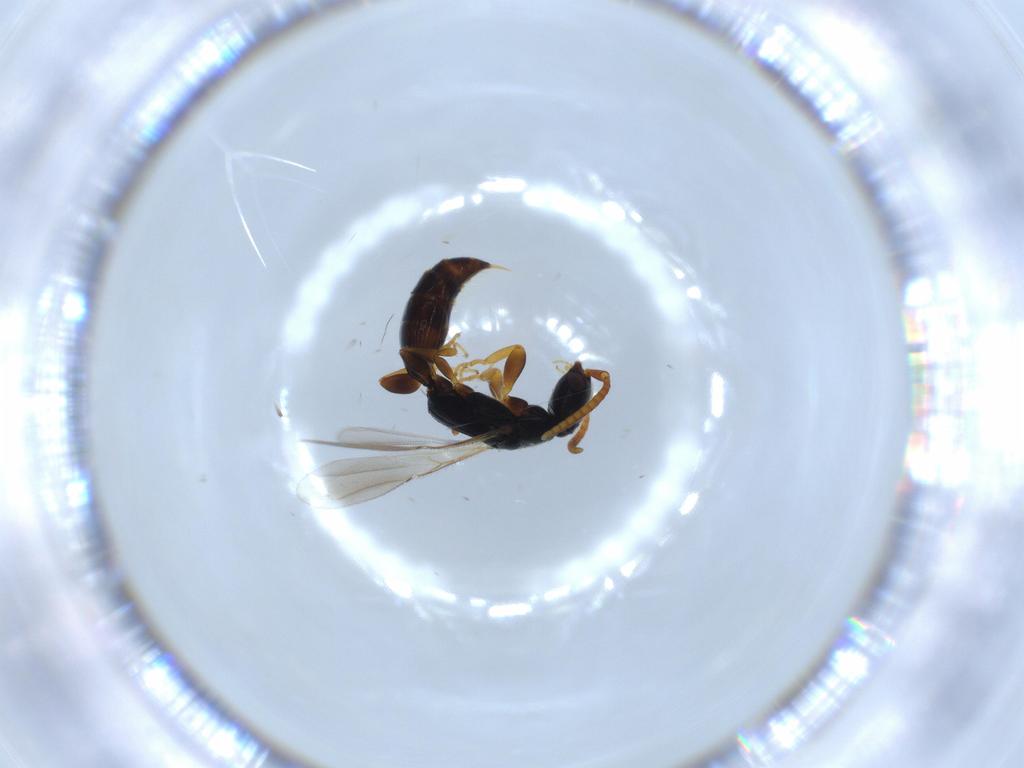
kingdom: Animalia
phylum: Arthropoda
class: Insecta
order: Hymenoptera
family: Bethylidae
